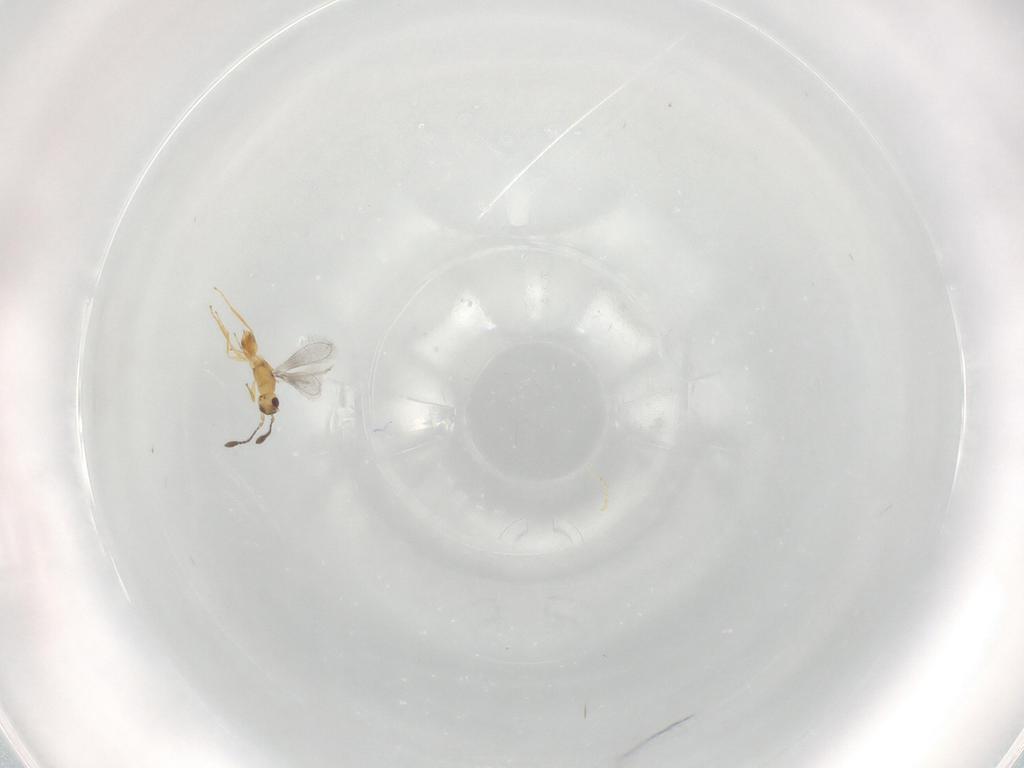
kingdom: Animalia
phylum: Arthropoda
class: Insecta
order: Hymenoptera
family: Mymaridae
